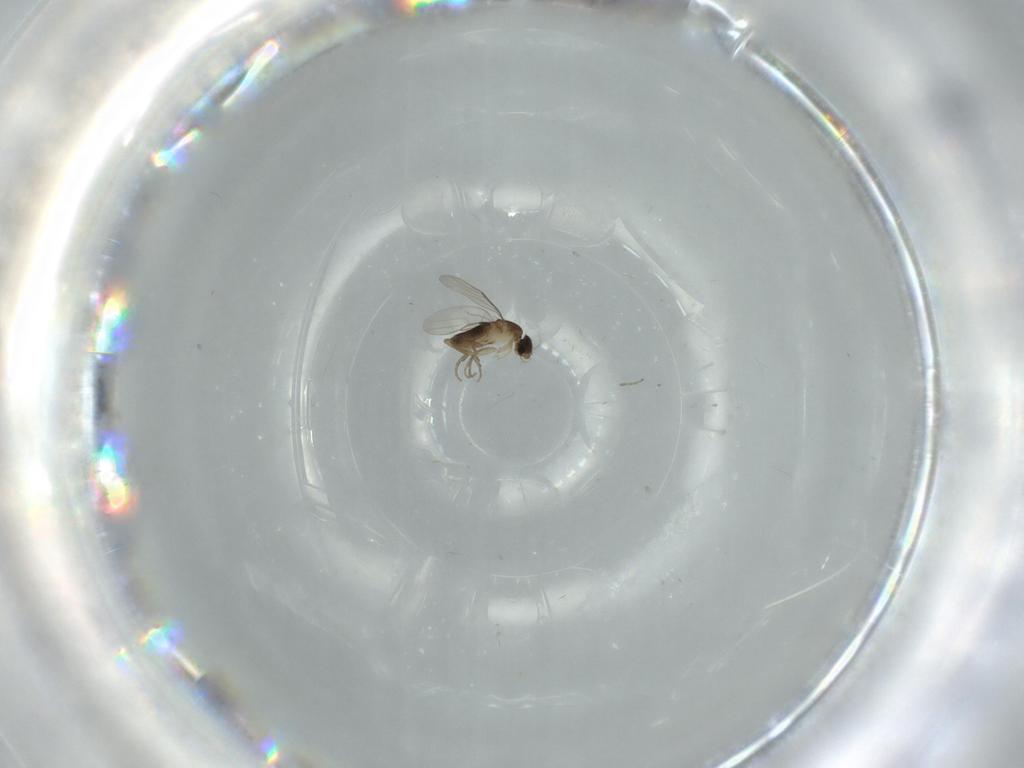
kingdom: Animalia
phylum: Arthropoda
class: Insecta
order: Diptera
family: Phoridae
